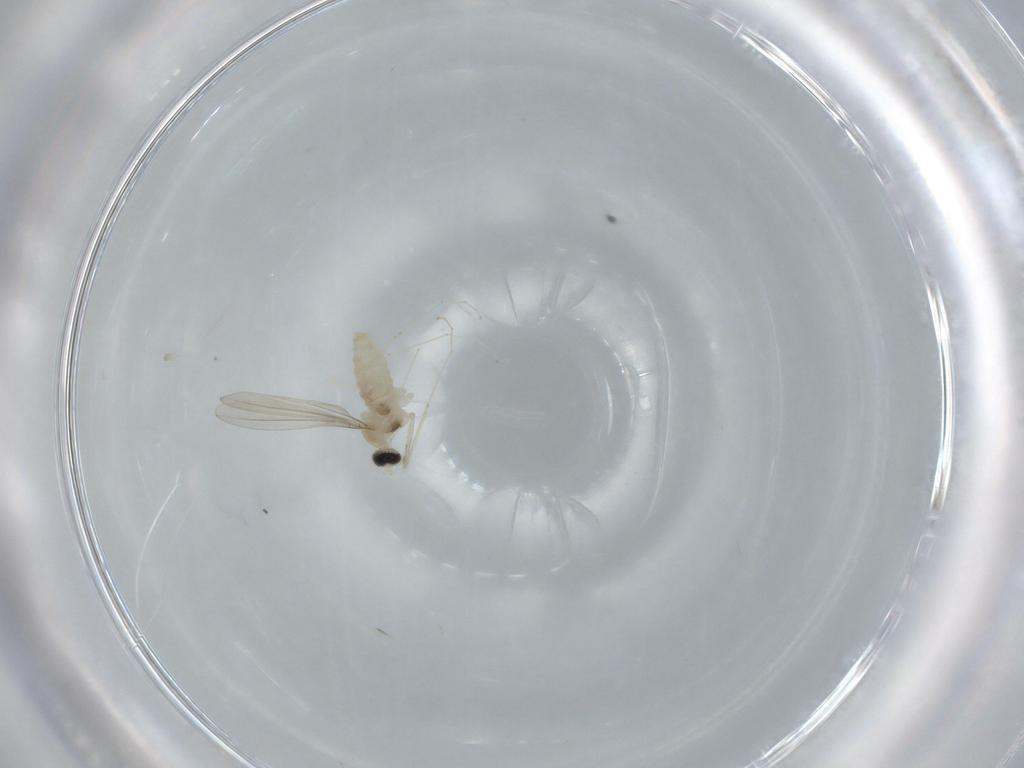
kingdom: Animalia
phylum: Arthropoda
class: Insecta
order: Diptera
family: Cecidomyiidae
